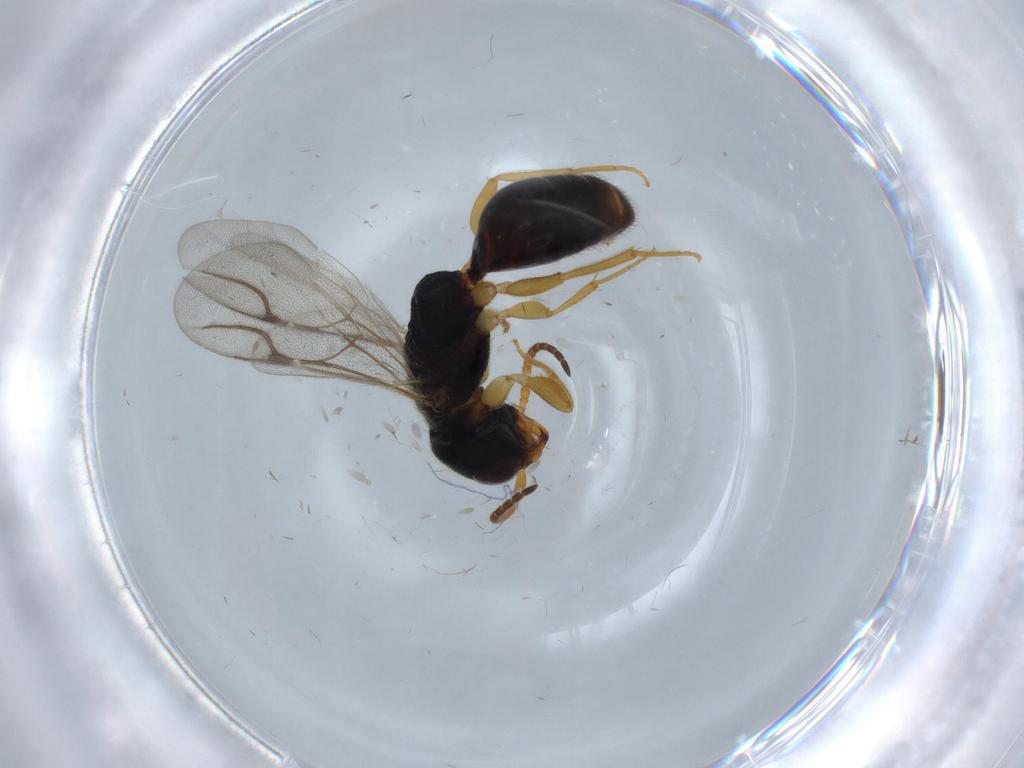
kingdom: Animalia
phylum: Arthropoda
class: Insecta
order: Hymenoptera
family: Bethylidae
